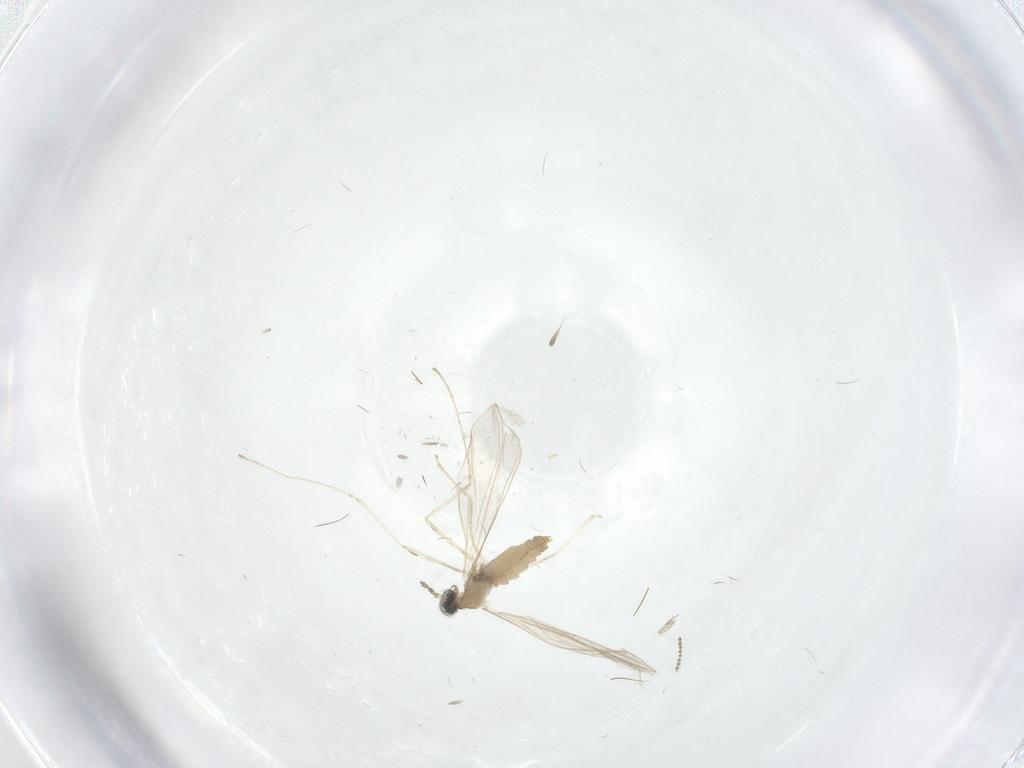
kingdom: Animalia
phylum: Arthropoda
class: Insecta
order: Diptera
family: Cecidomyiidae
